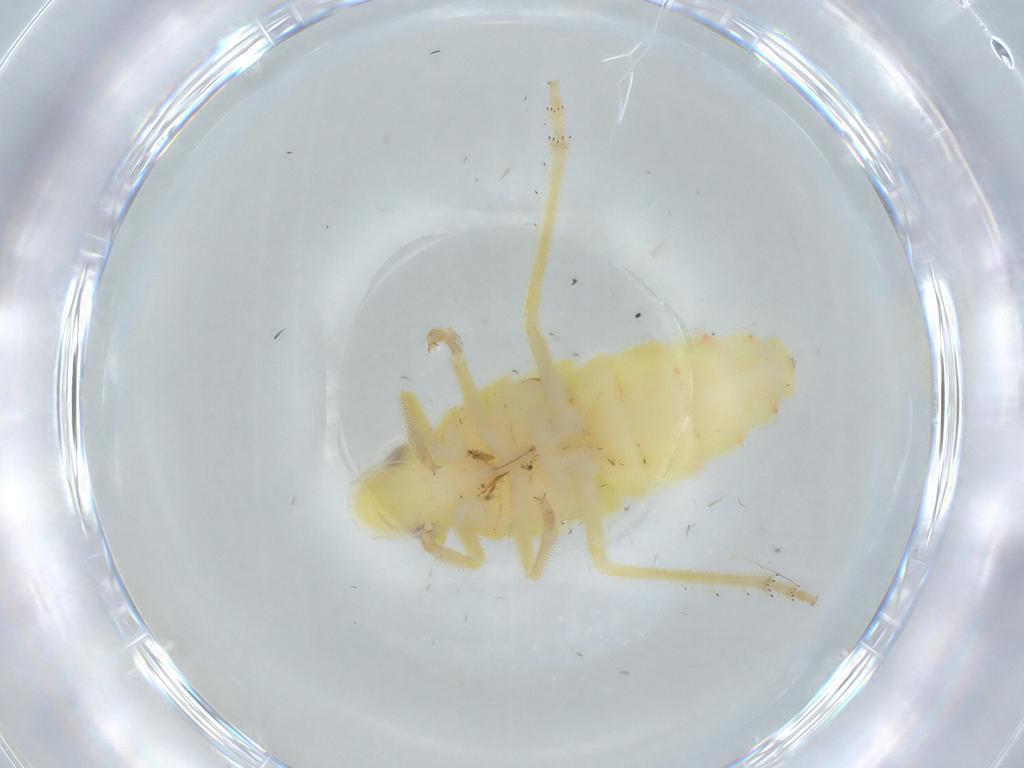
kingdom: Animalia
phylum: Arthropoda
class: Insecta
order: Hemiptera
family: Tropiduchidae
